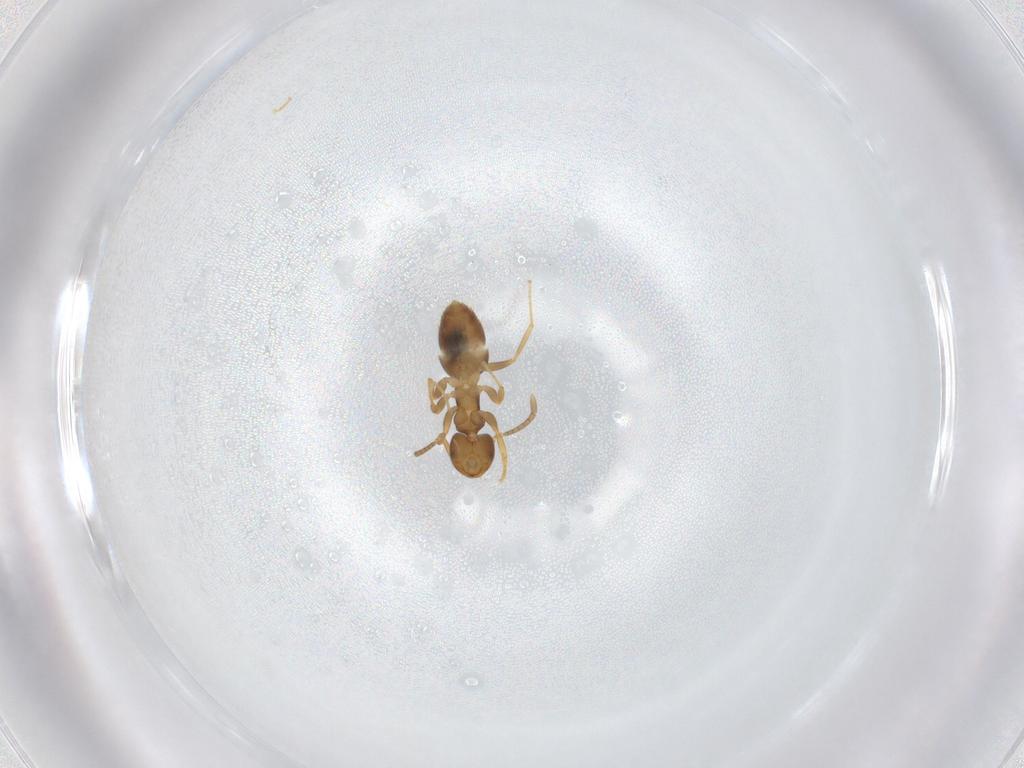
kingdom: Animalia
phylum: Arthropoda
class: Insecta
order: Hymenoptera
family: Formicidae
